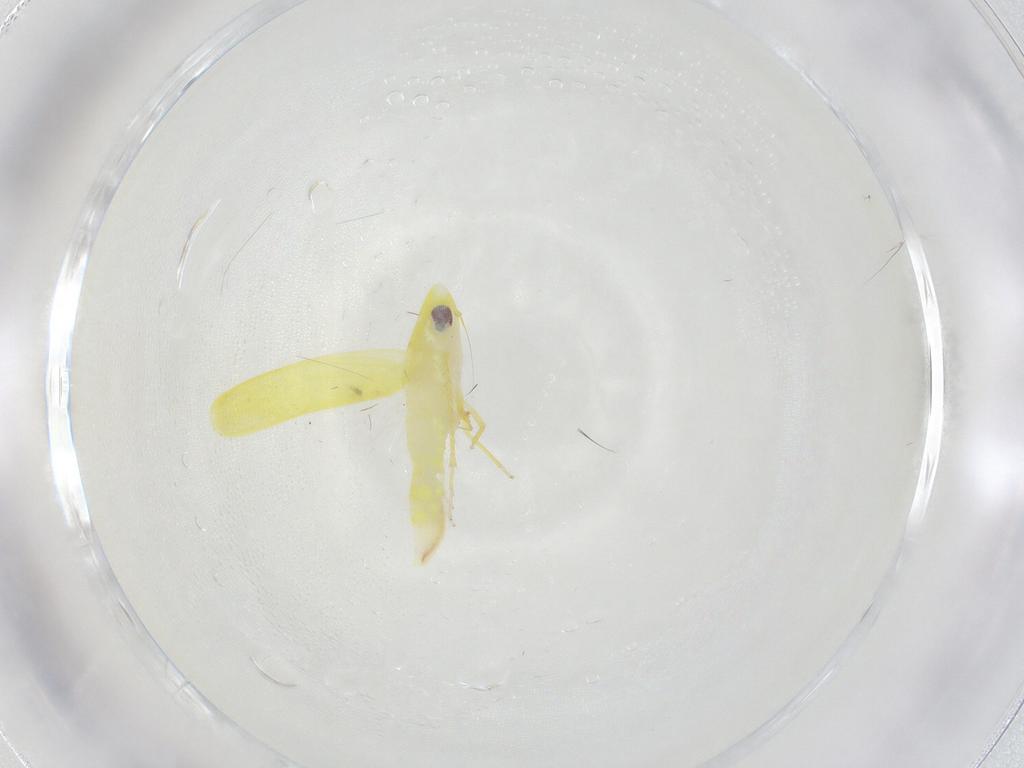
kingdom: Animalia
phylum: Arthropoda
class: Insecta
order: Hemiptera
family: Cicadellidae
